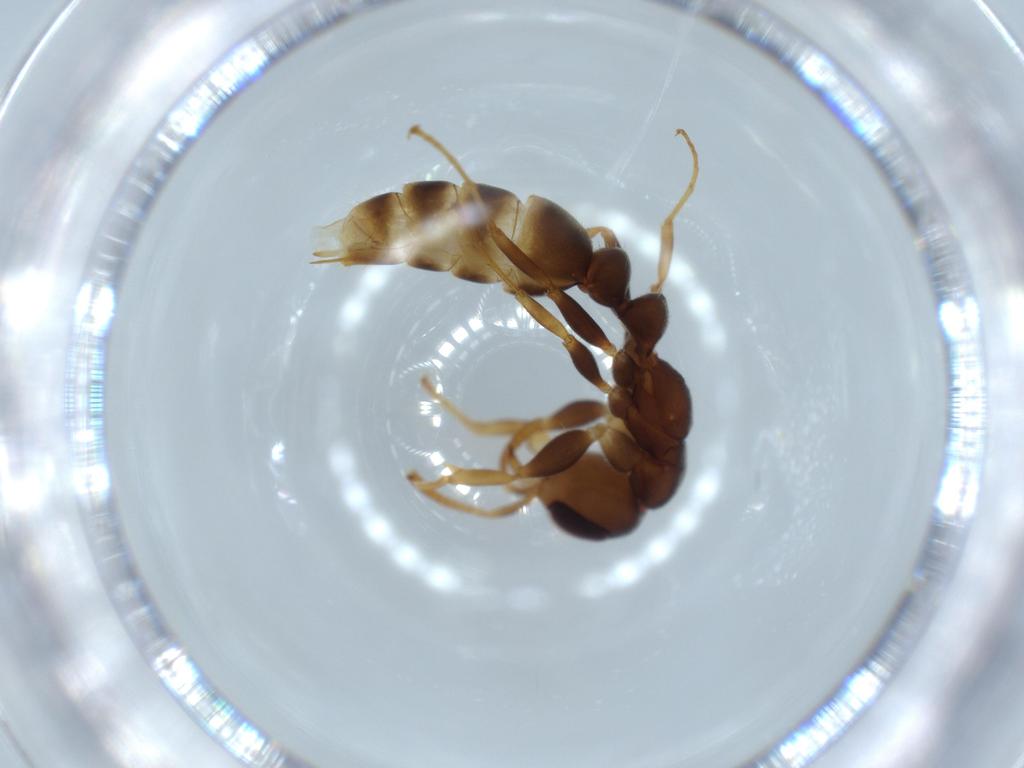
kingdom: Animalia
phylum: Arthropoda
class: Insecta
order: Hymenoptera
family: Formicidae
